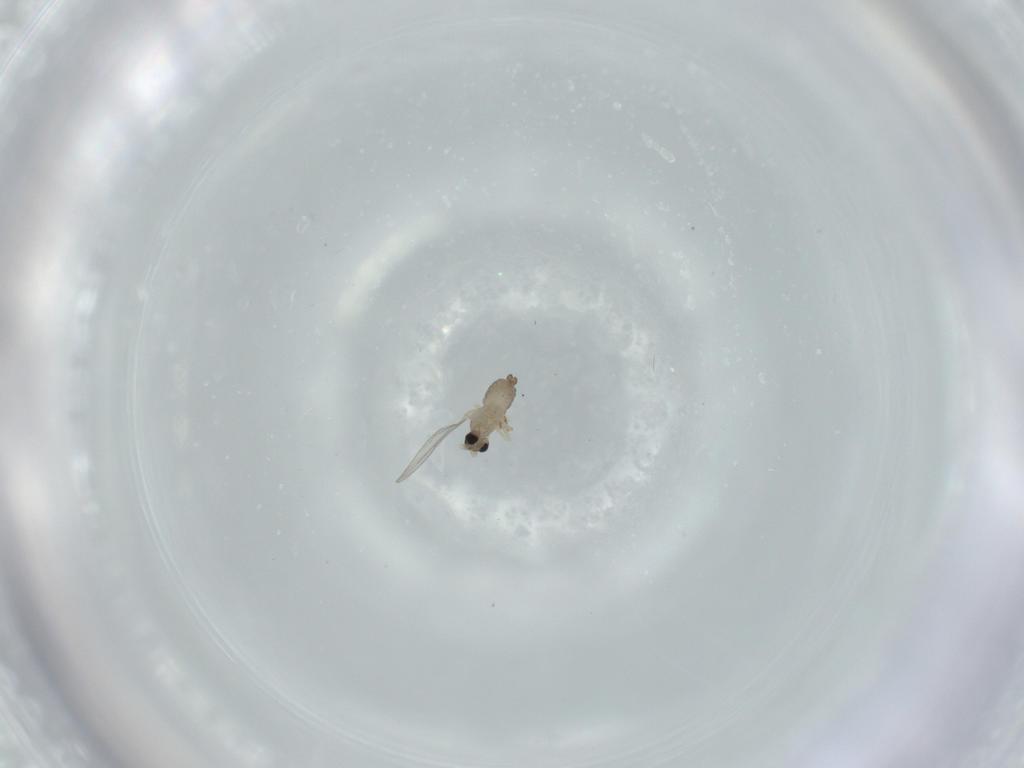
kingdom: Animalia
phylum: Arthropoda
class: Insecta
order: Diptera
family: Cecidomyiidae
